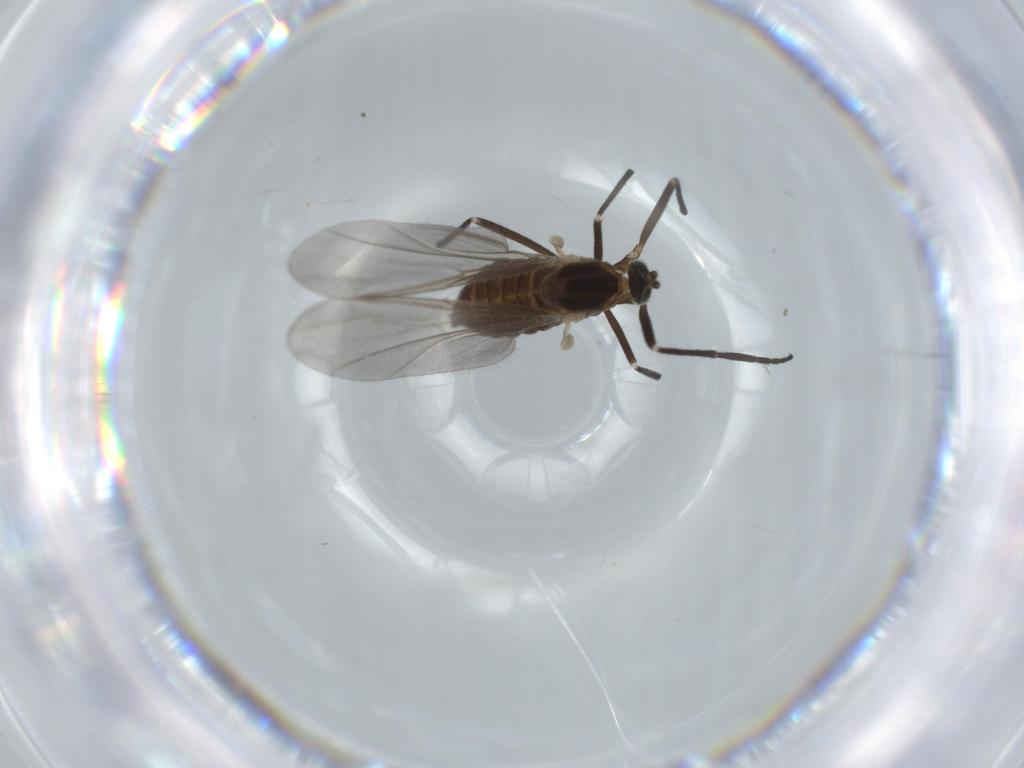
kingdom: Animalia
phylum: Arthropoda
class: Insecta
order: Diptera
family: Cecidomyiidae
